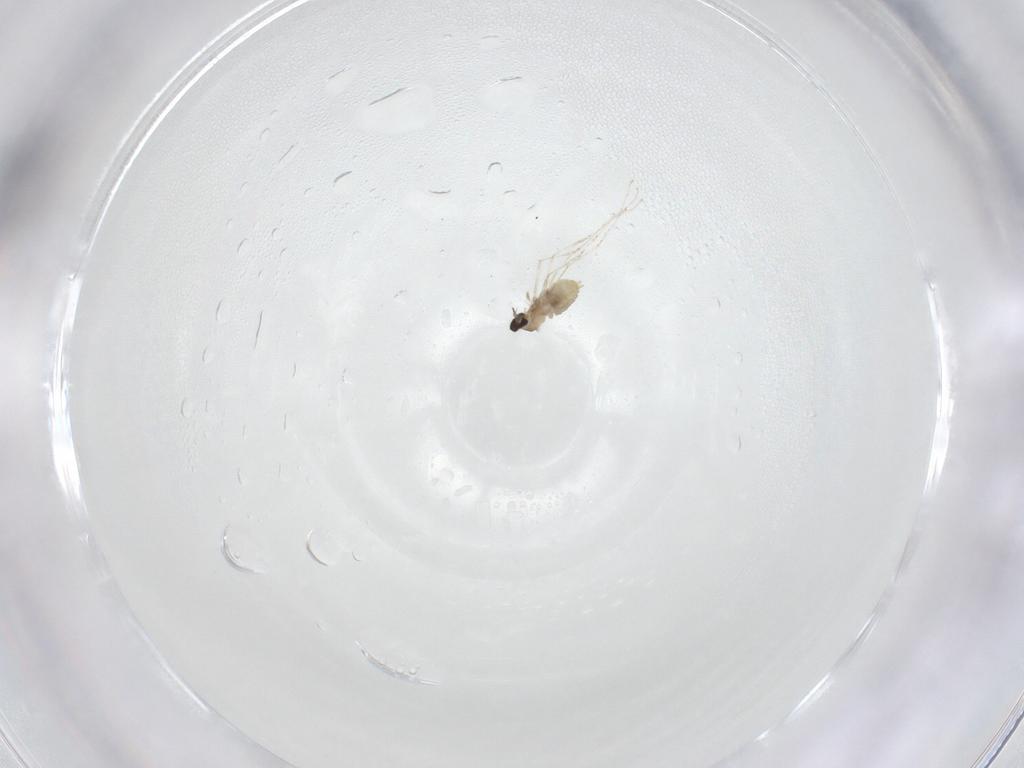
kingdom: Animalia
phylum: Arthropoda
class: Insecta
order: Diptera
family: Cecidomyiidae
